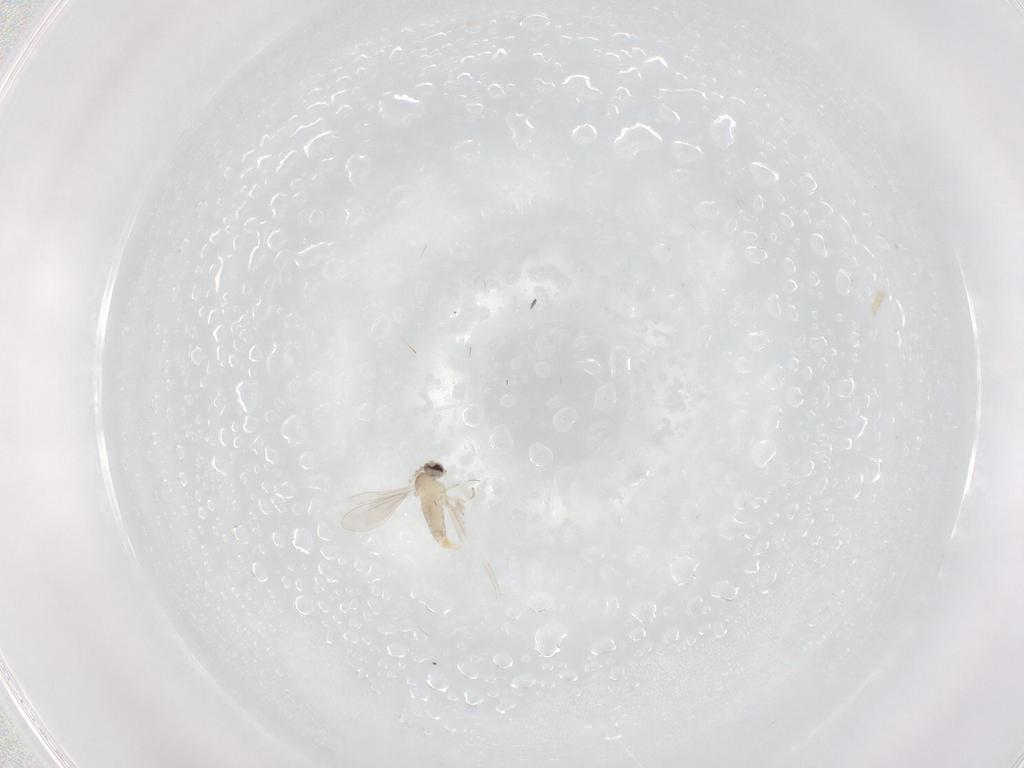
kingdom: Animalia
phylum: Arthropoda
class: Insecta
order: Diptera
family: Cecidomyiidae
